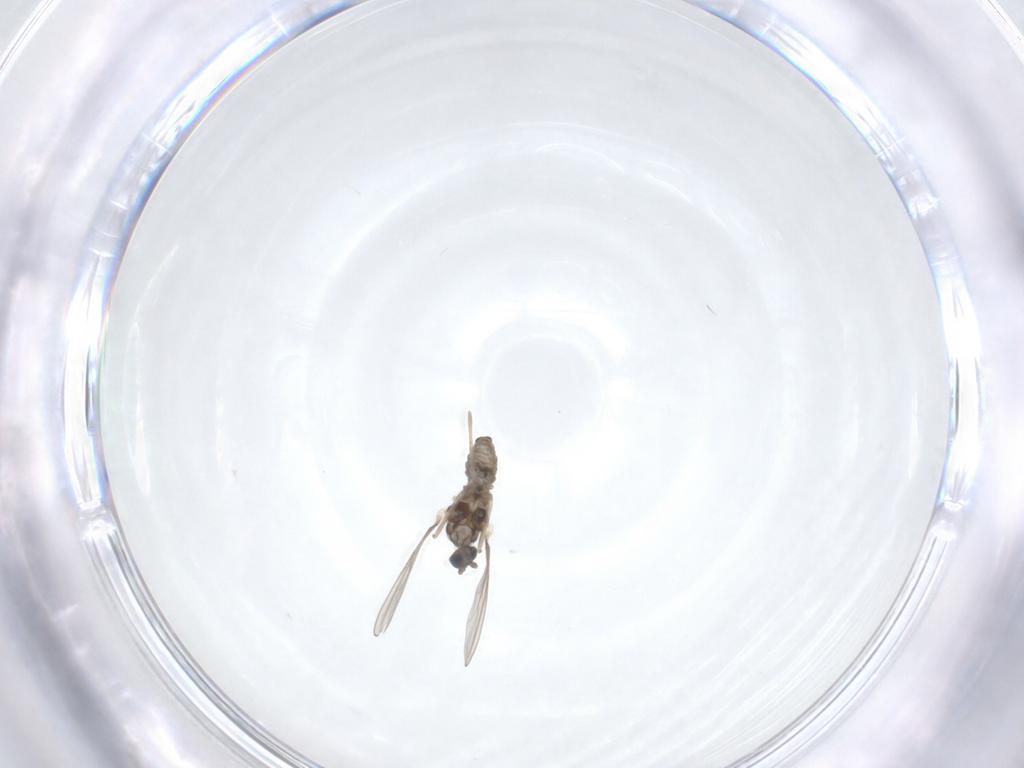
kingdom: Animalia
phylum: Arthropoda
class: Insecta
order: Diptera
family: Cecidomyiidae
